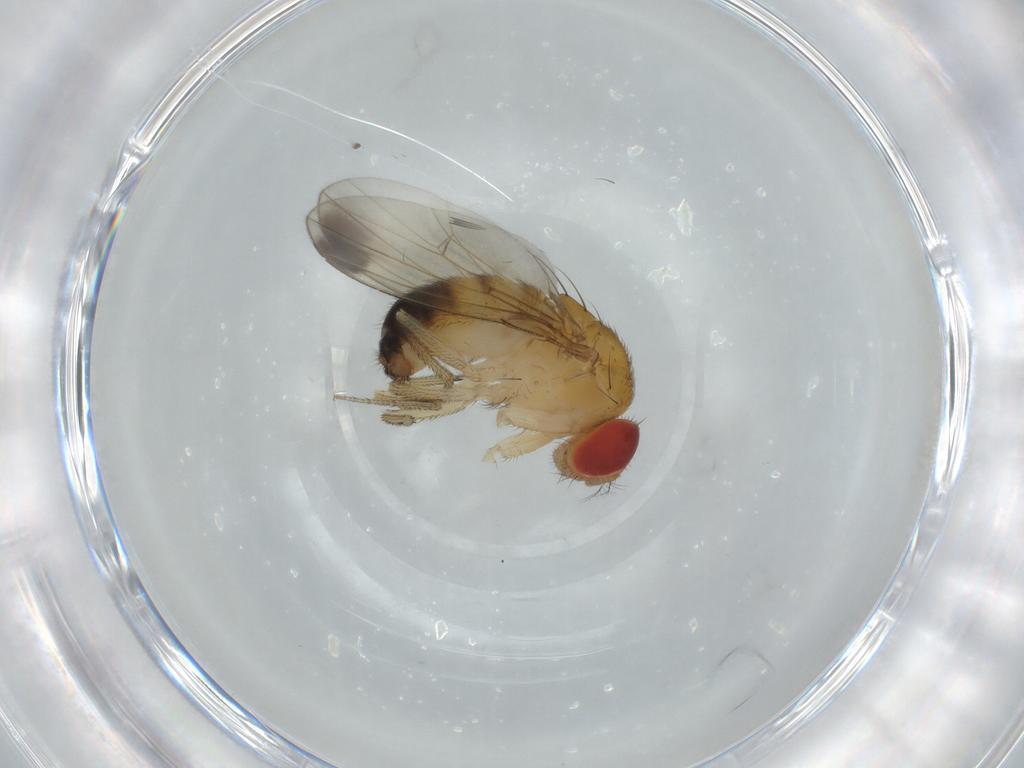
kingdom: Animalia
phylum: Arthropoda
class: Insecta
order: Diptera
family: Drosophilidae
